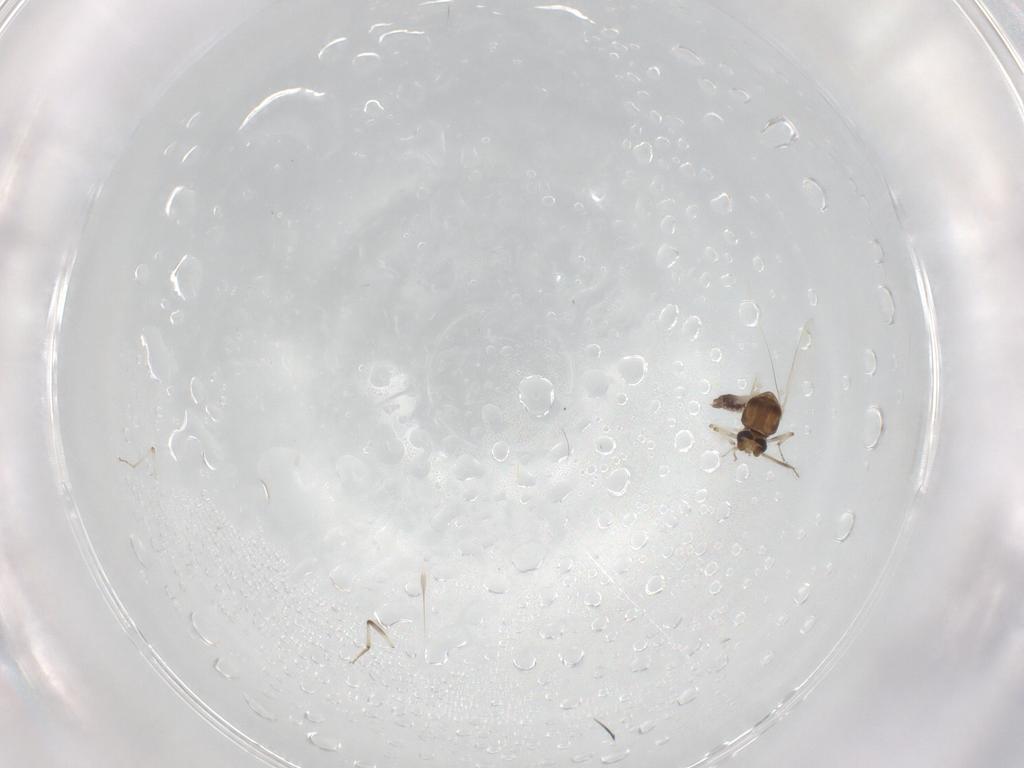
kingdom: Animalia
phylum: Arthropoda
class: Insecta
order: Diptera
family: Ceratopogonidae
